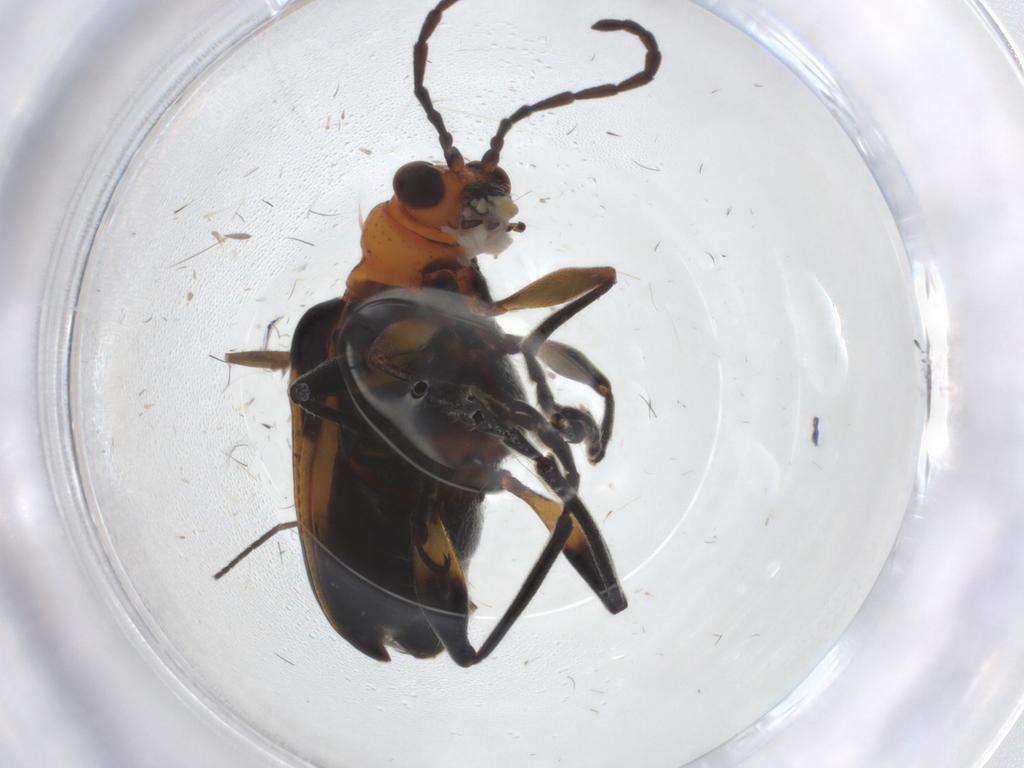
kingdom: Animalia
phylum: Arthropoda
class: Insecta
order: Coleoptera
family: Chrysomelidae
